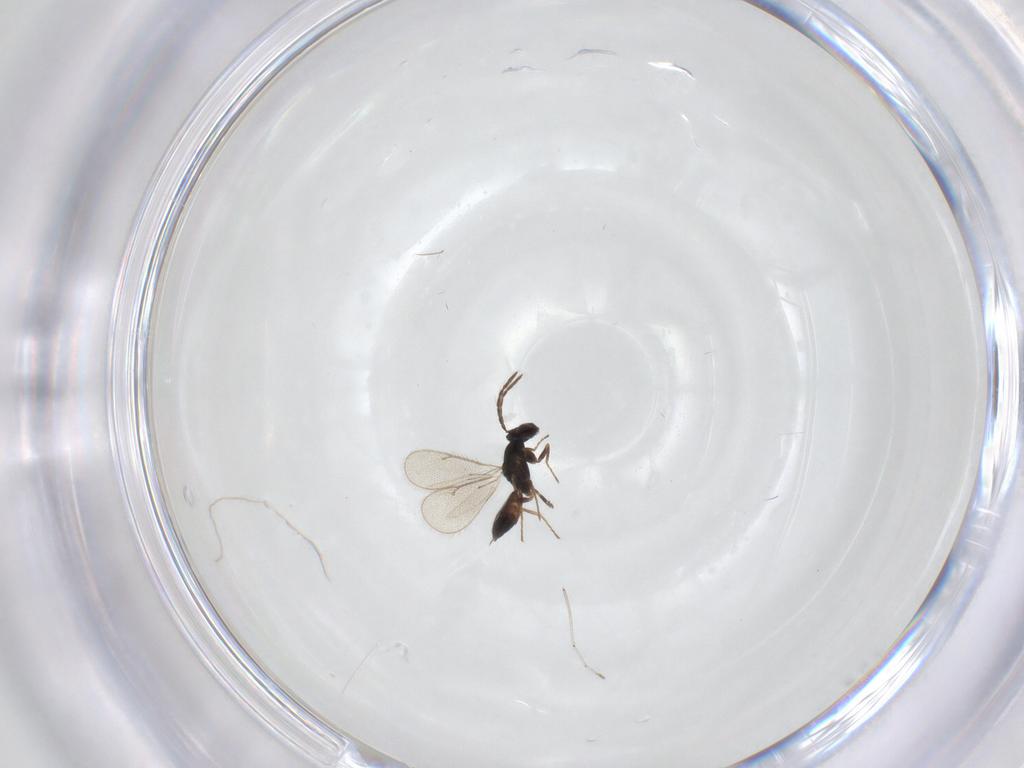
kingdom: Animalia
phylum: Arthropoda
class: Insecta
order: Hymenoptera
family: Eulophidae
